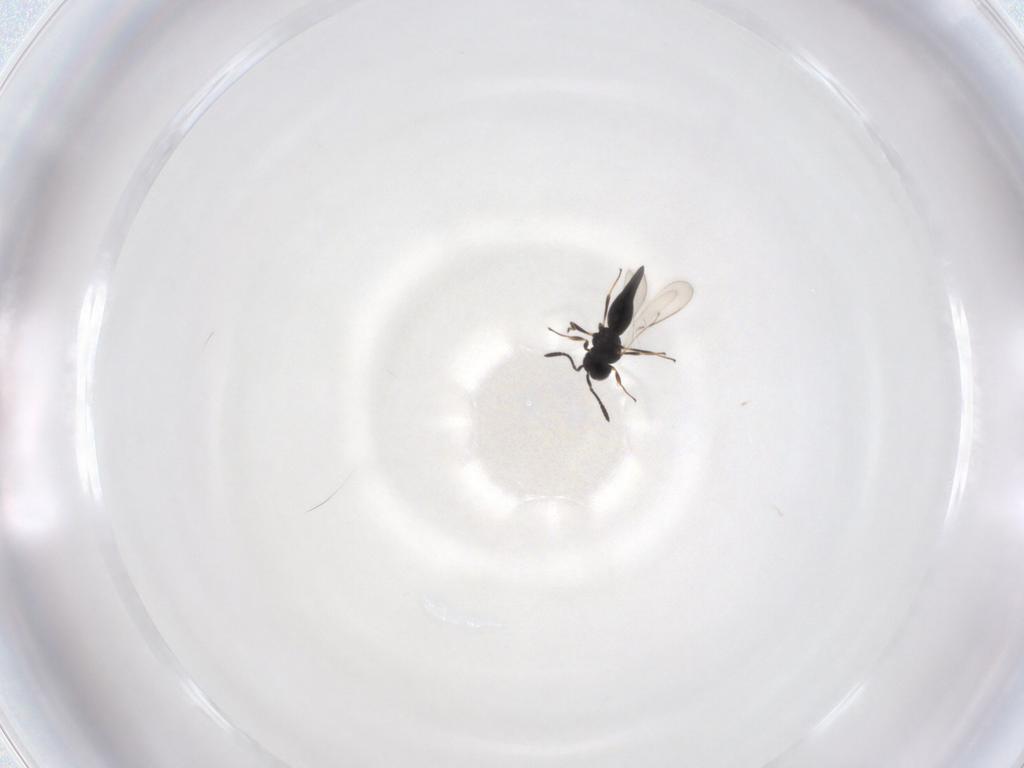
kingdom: Animalia
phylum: Arthropoda
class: Insecta
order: Hymenoptera
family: Scelionidae
